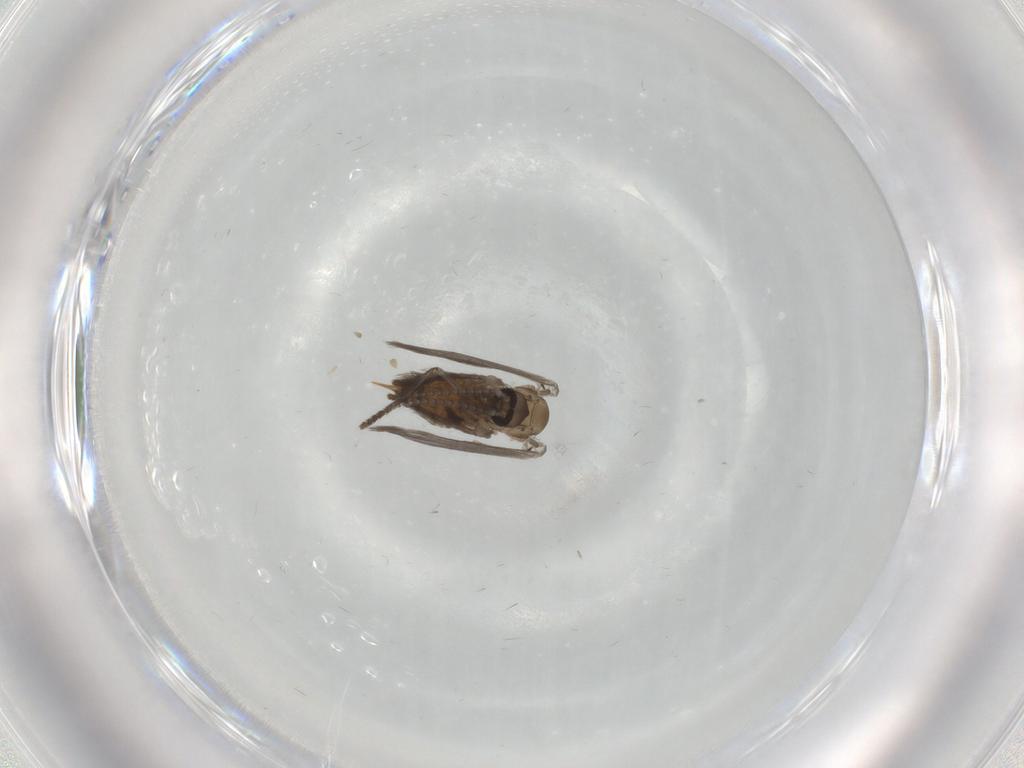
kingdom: Animalia
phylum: Arthropoda
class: Insecta
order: Diptera
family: Psychodidae
